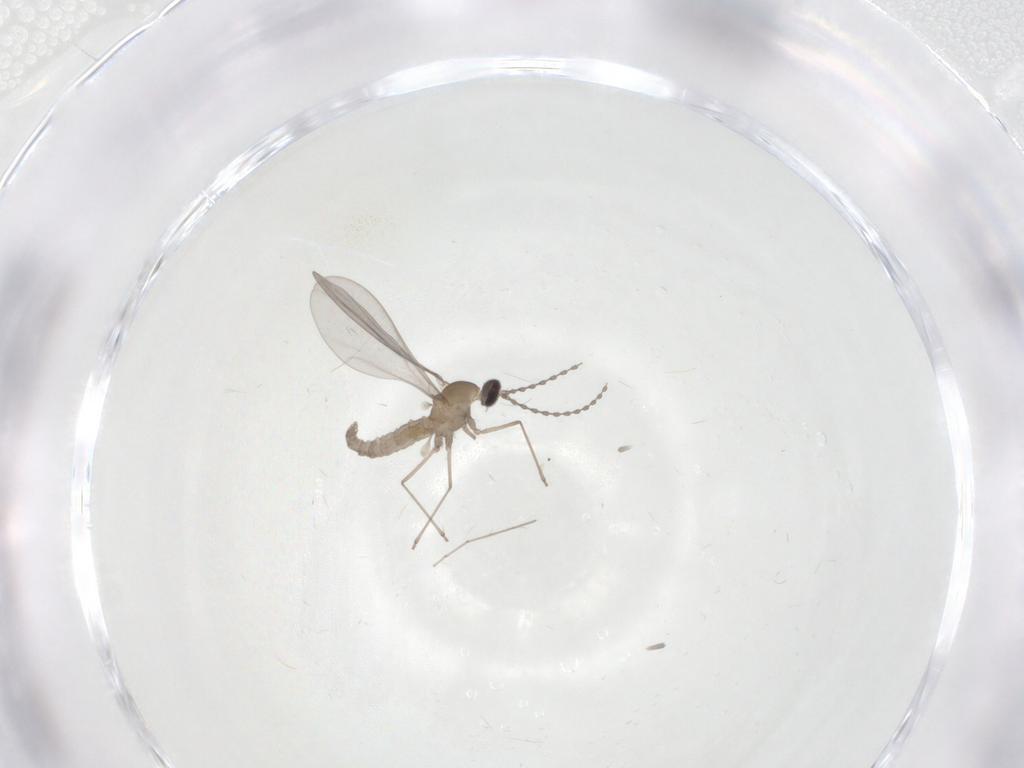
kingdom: Animalia
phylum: Arthropoda
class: Insecta
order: Diptera
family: Cecidomyiidae
